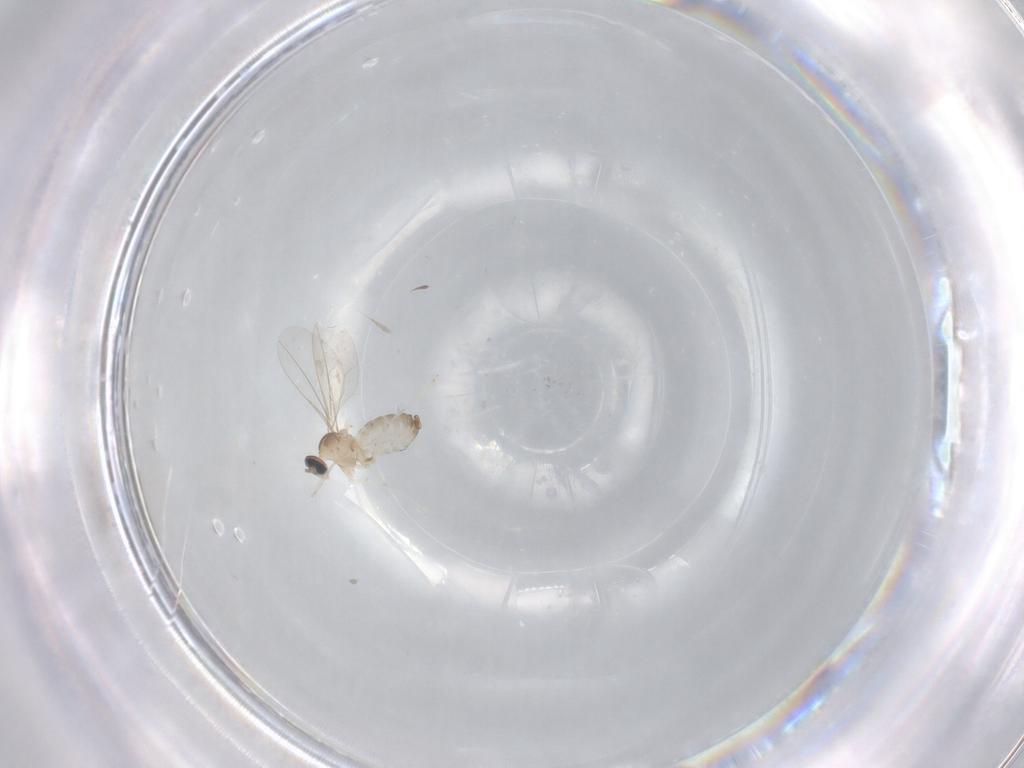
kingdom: Animalia
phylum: Arthropoda
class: Insecta
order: Diptera
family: Cecidomyiidae
